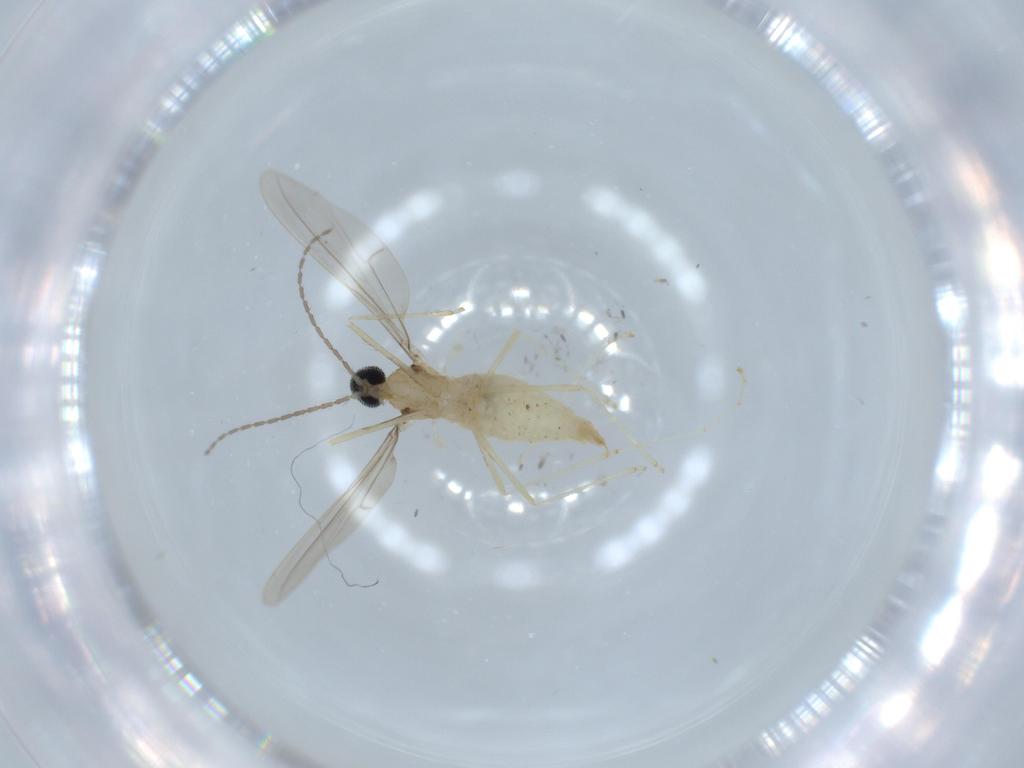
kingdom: Animalia
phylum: Arthropoda
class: Insecta
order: Diptera
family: Cecidomyiidae
